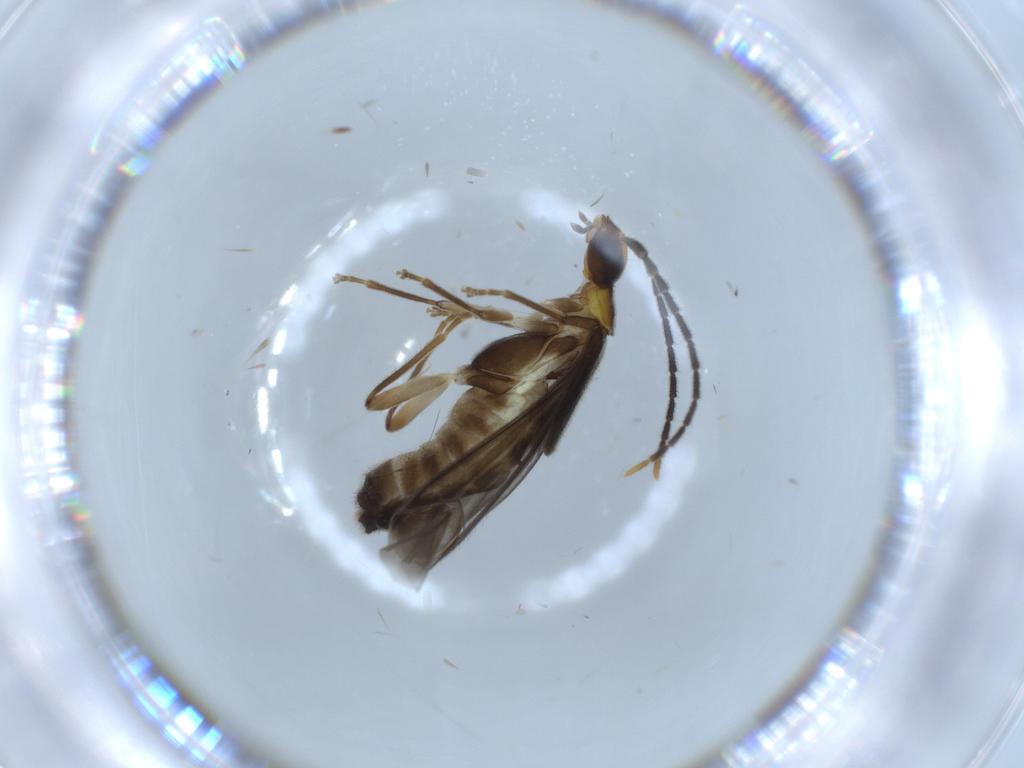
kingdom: Animalia
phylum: Arthropoda
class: Insecta
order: Coleoptera
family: Cantharidae
